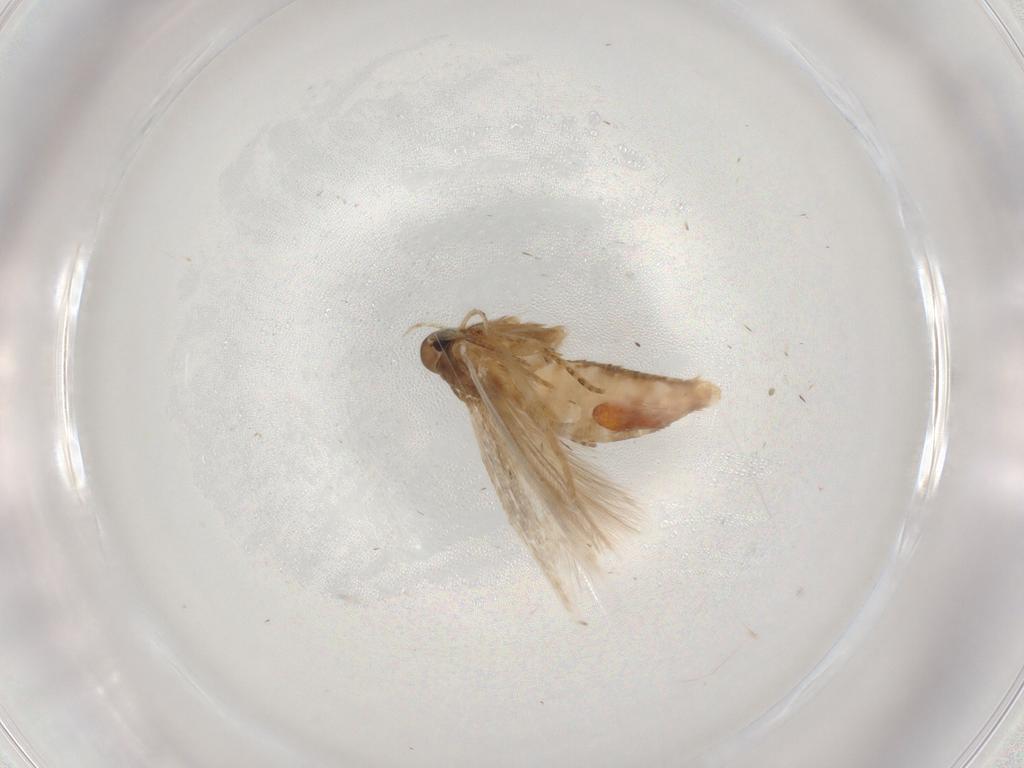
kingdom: Animalia
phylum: Arthropoda
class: Insecta
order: Lepidoptera
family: Cosmopterigidae
